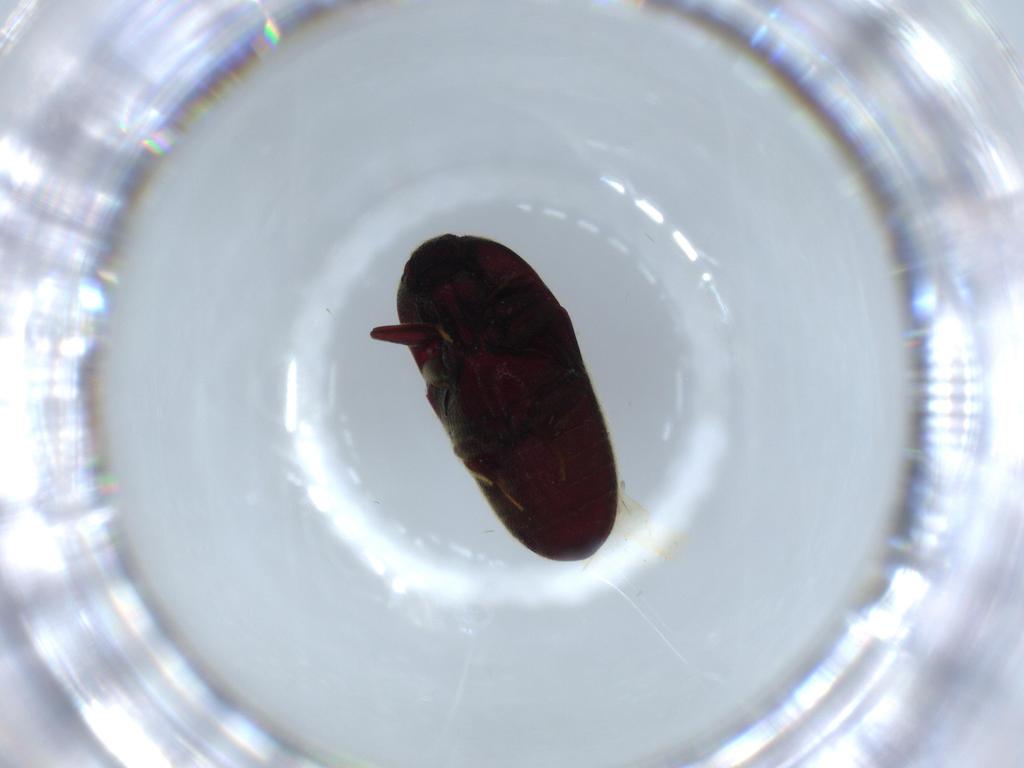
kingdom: Animalia
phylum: Arthropoda
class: Insecta
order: Coleoptera
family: Throscidae
